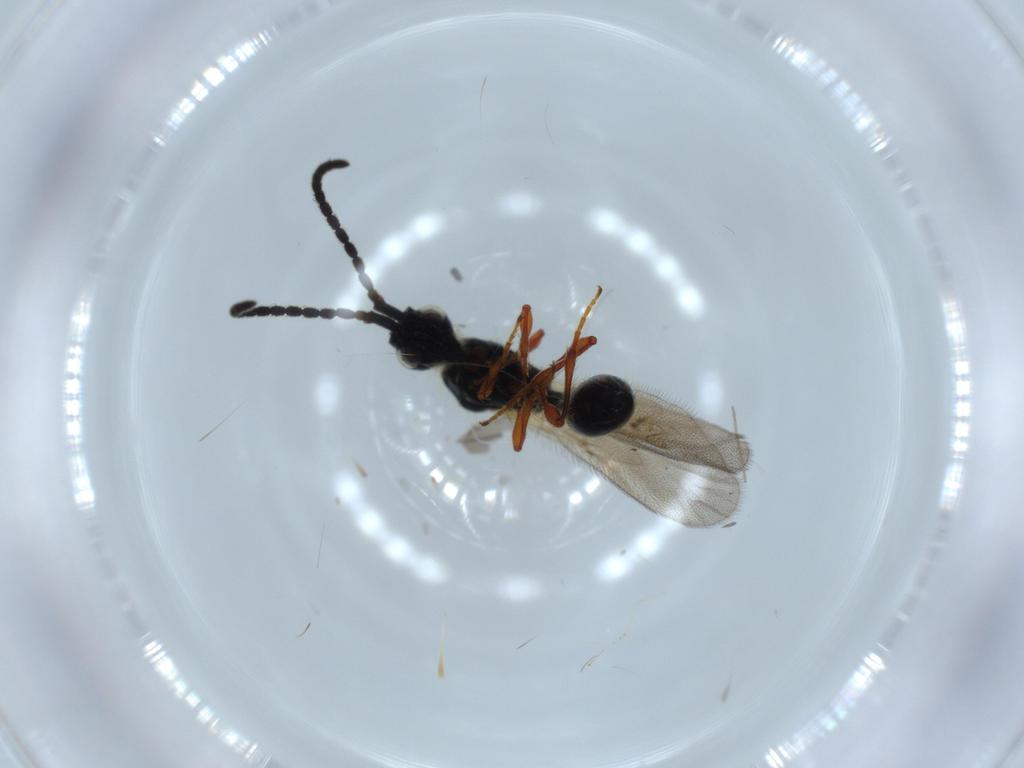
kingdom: Animalia
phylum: Arthropoda
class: Insecta
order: Hymenoptera
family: Diapriidae
